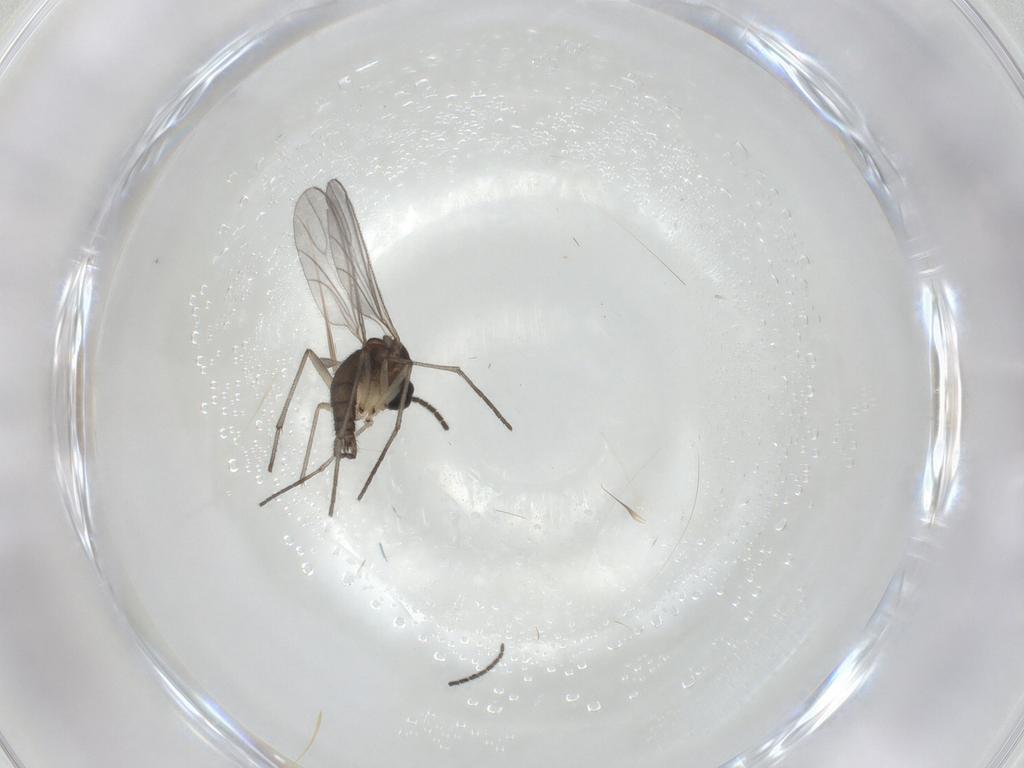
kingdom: Animalia
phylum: Arthropoda
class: Insecta
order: Diptera
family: Sciaridae
